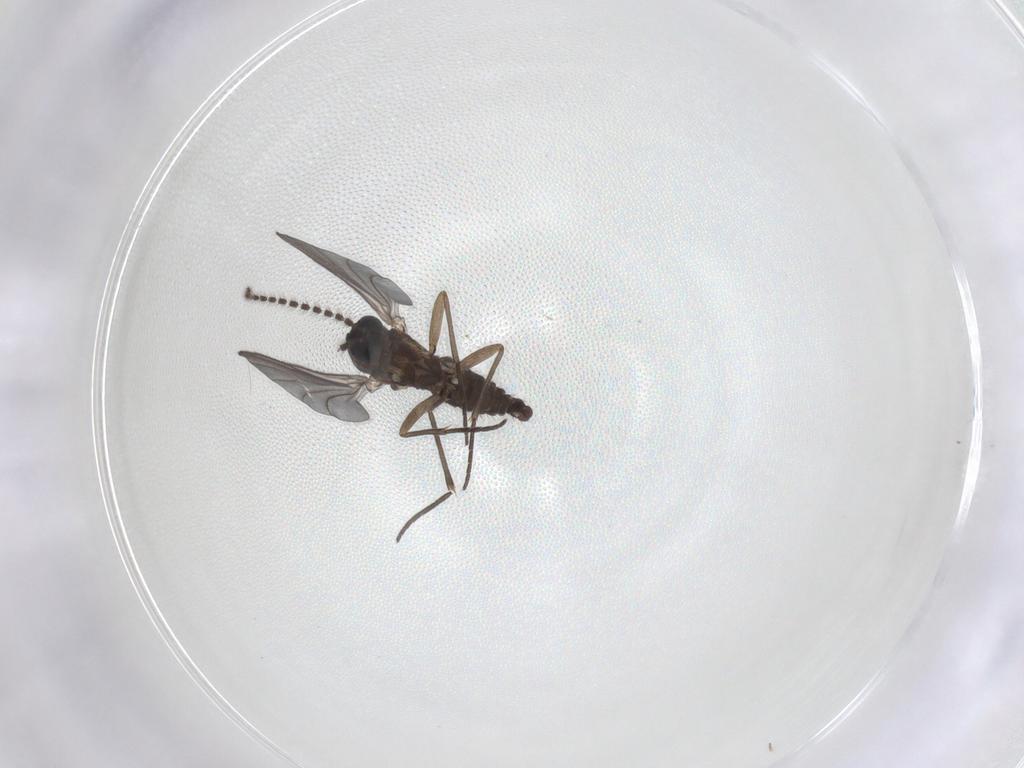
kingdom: Animalia
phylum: Arthropoda
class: Insecta
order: Diptera
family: Sciaridae
